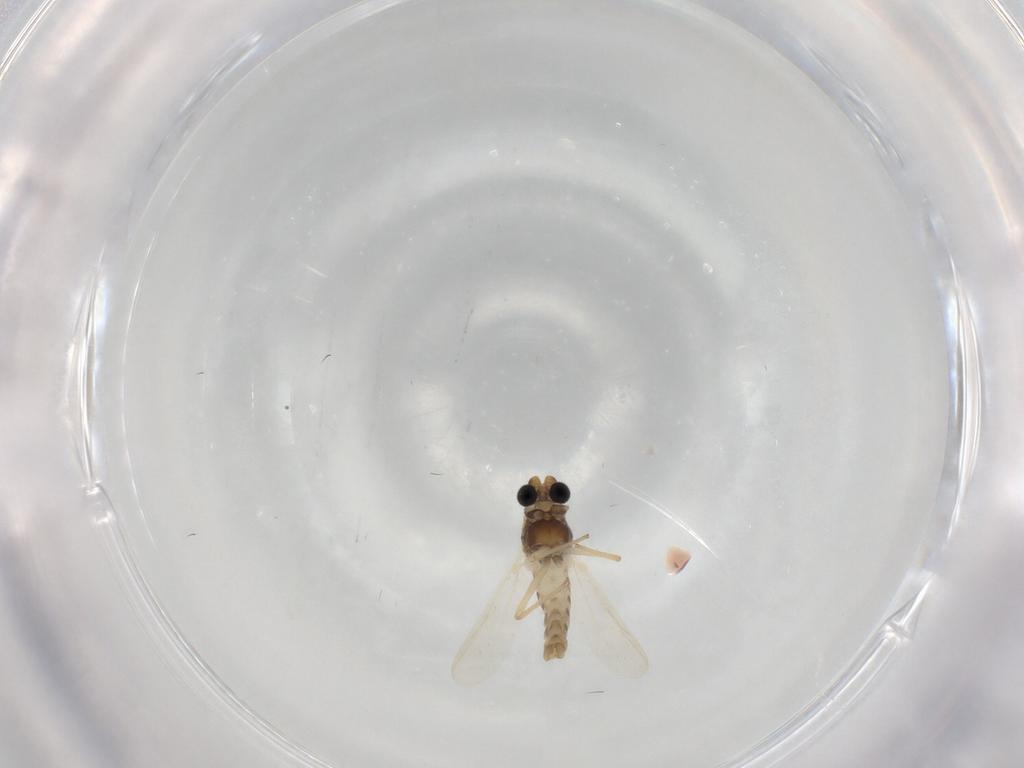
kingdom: Animalia
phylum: Arthropoda
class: Insecta
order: Diptera
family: Chironomidae
